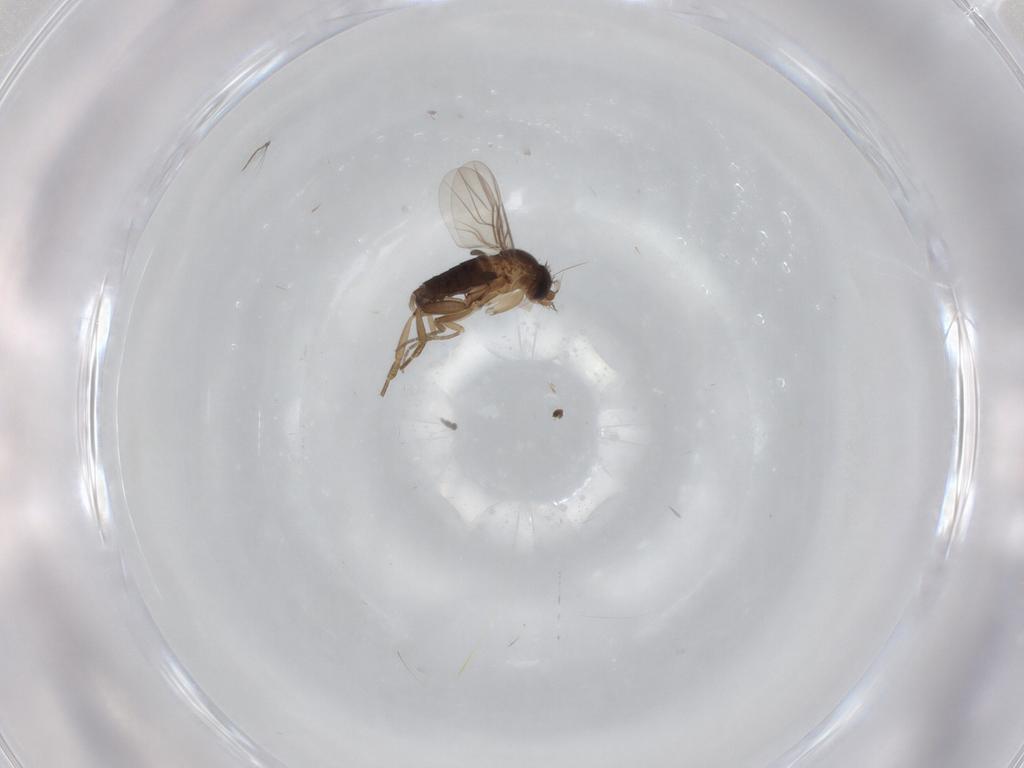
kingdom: Animalia
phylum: Arthropoda
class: Insecta
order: Diptera
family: Phoridae
